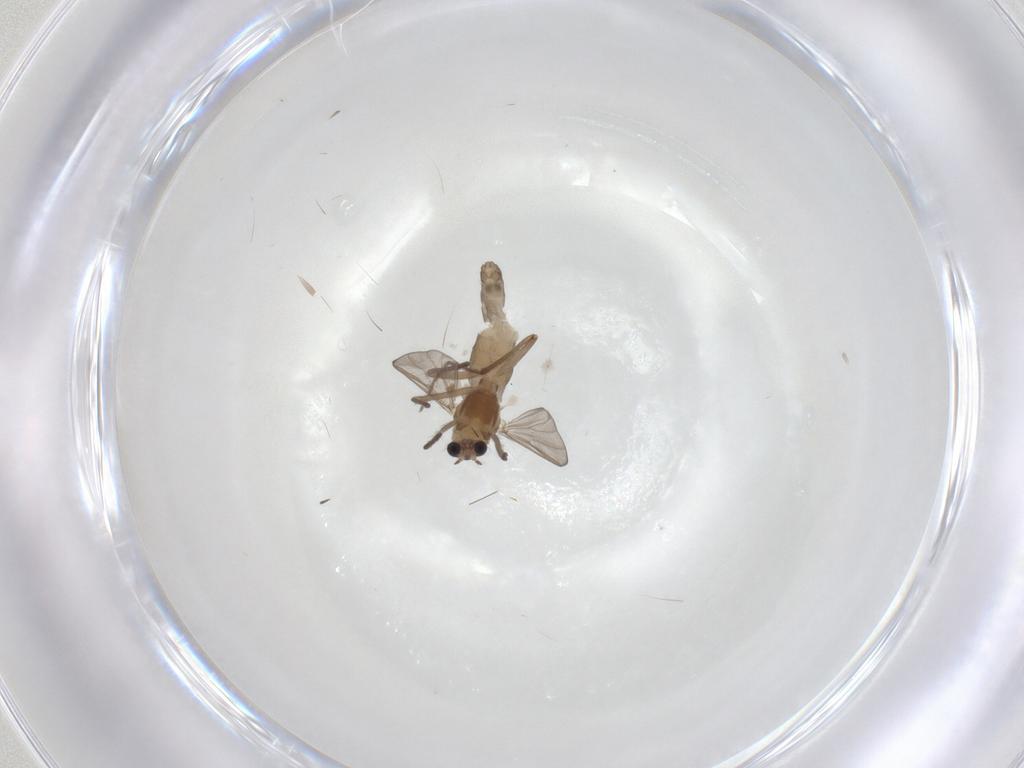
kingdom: Animalia
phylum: Arthropoda
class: Insecta
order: Diptera
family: Chironomidae
